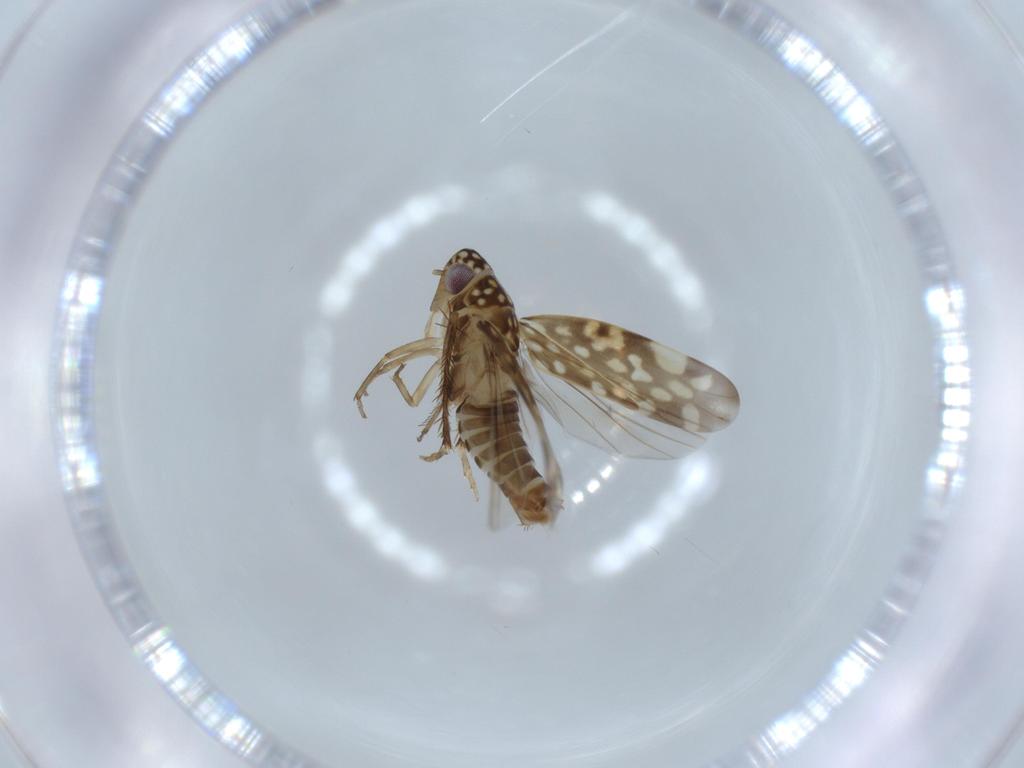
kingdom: Animalia
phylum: Arthropoda
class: Insecta
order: Hemiptera
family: Cicadellidae
